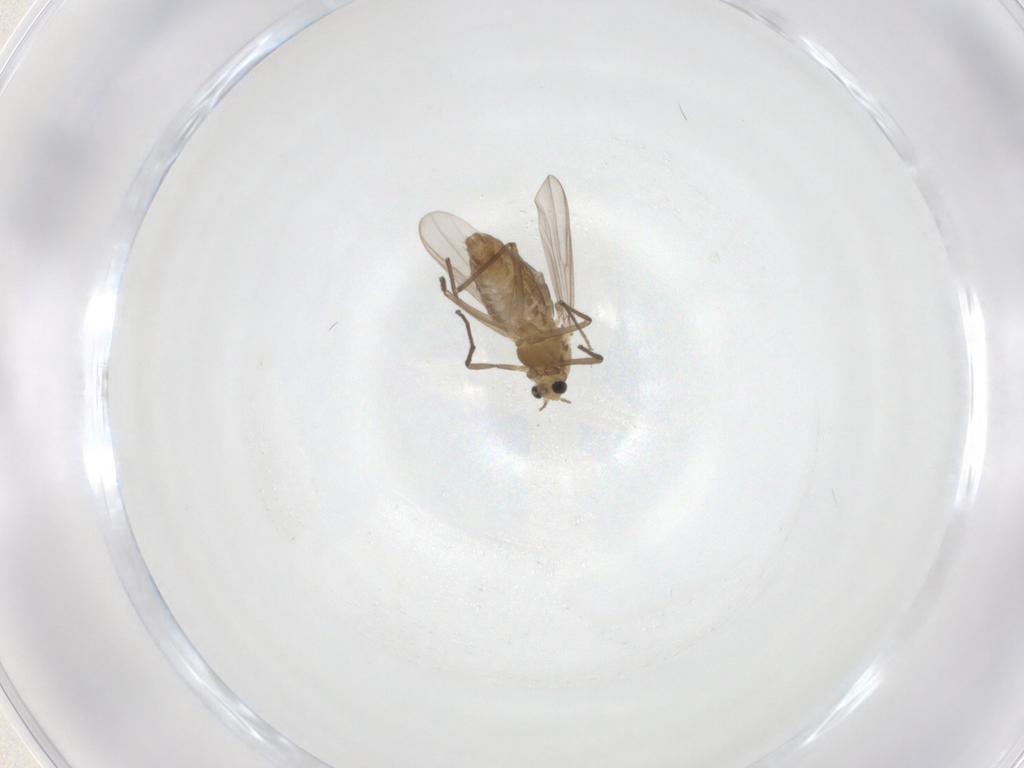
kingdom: Animalia
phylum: Arthropoda
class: Insecta
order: Diptera
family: Chironomidae
